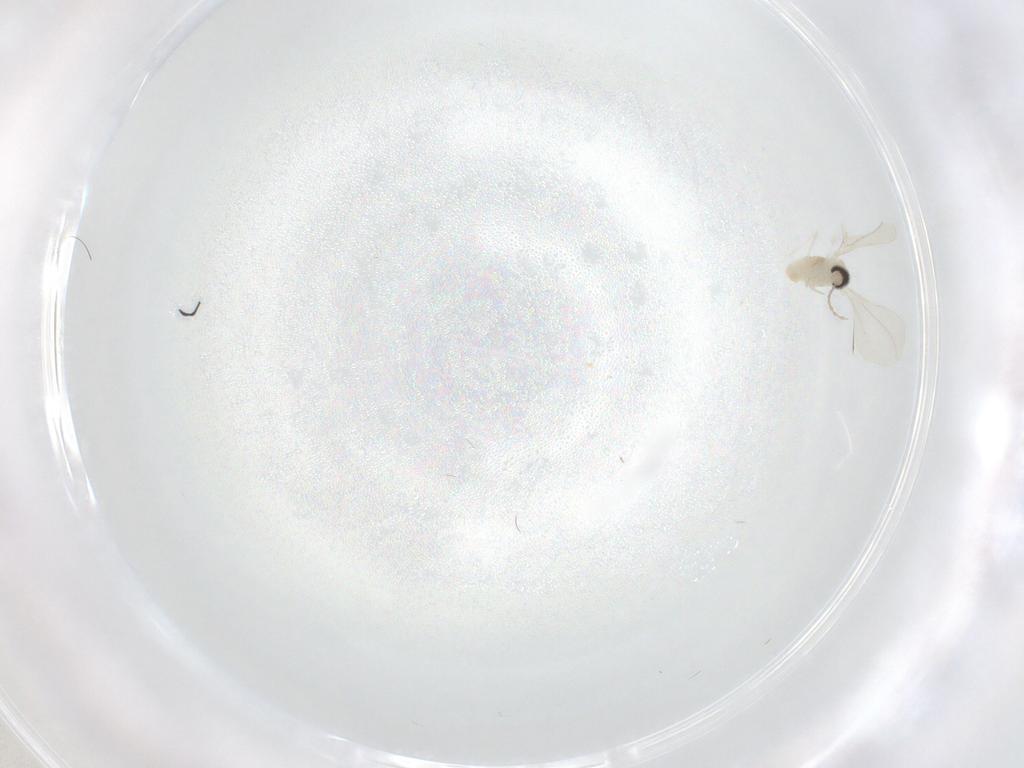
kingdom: Animalia
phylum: Arthropoda
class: Insecta
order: Diptera
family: Cecidomyiidae
